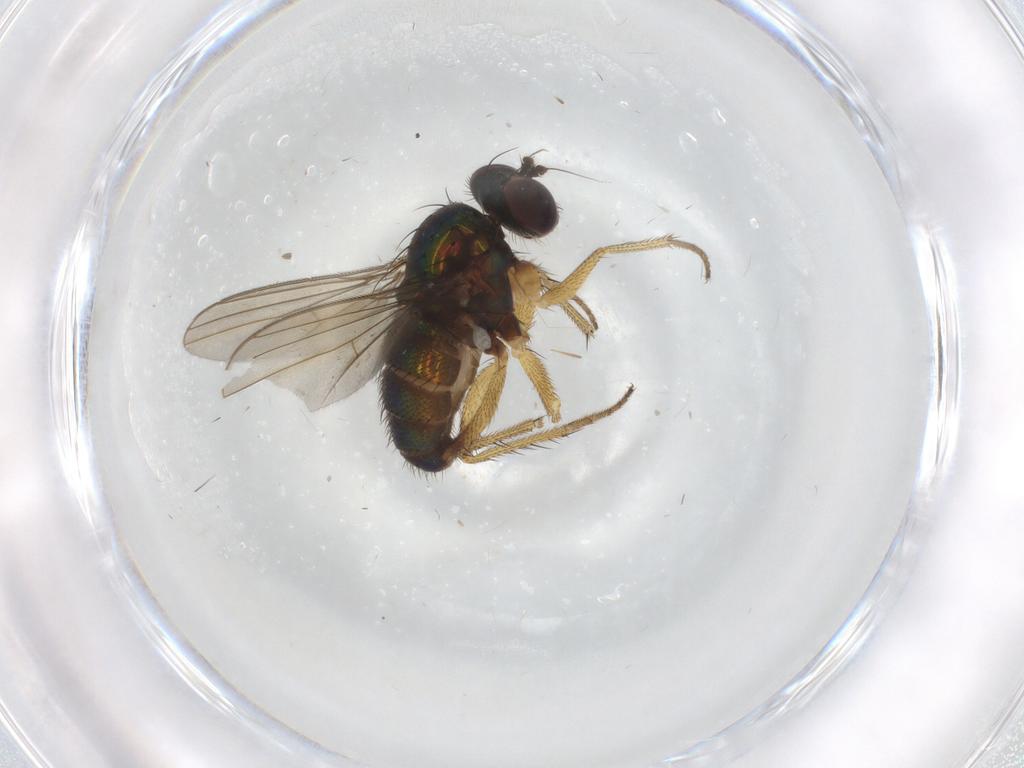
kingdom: Animalia
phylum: Arthropoda
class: Insecta
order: Diptera
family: Dolichopodidae
